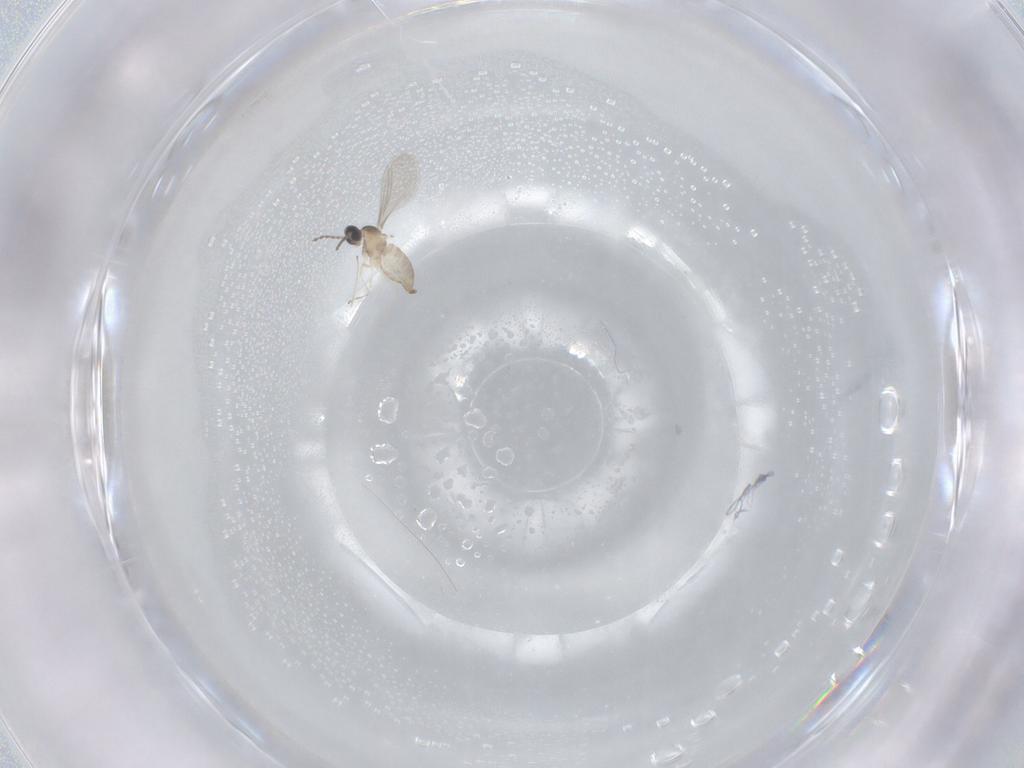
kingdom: Animalia
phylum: Arthropoda
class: Insecta
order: Diptera
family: Cecidomyiidae
